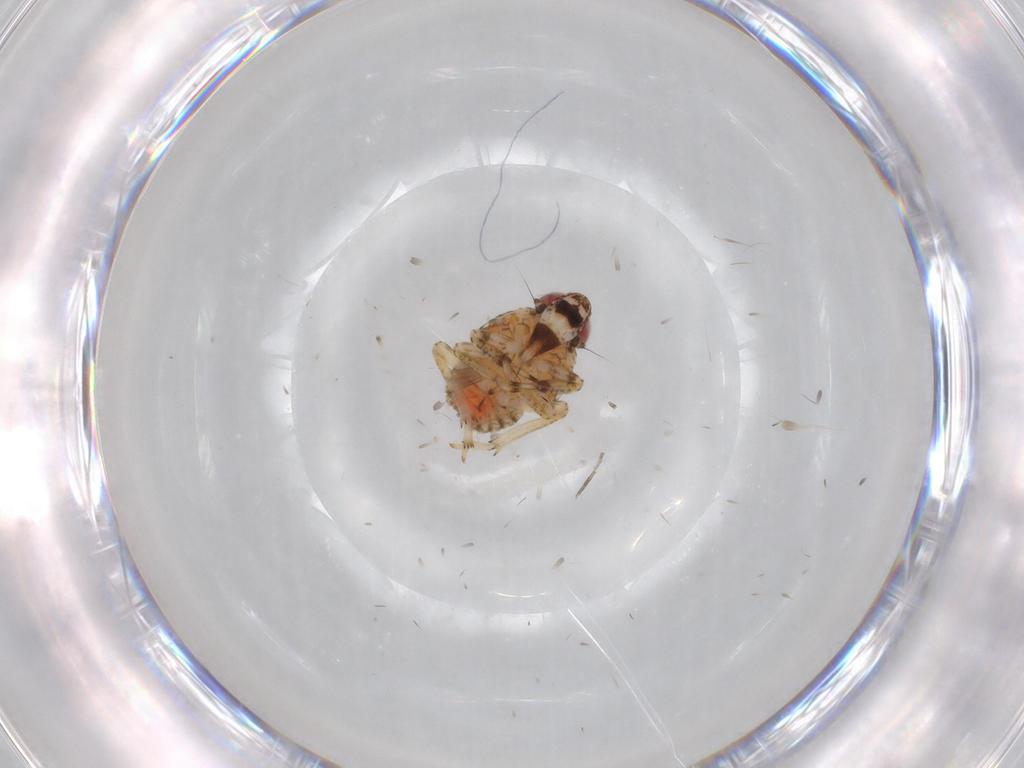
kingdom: Animalia
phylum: Arthropoda
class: Insecta
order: Hemiptera
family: Issidae
